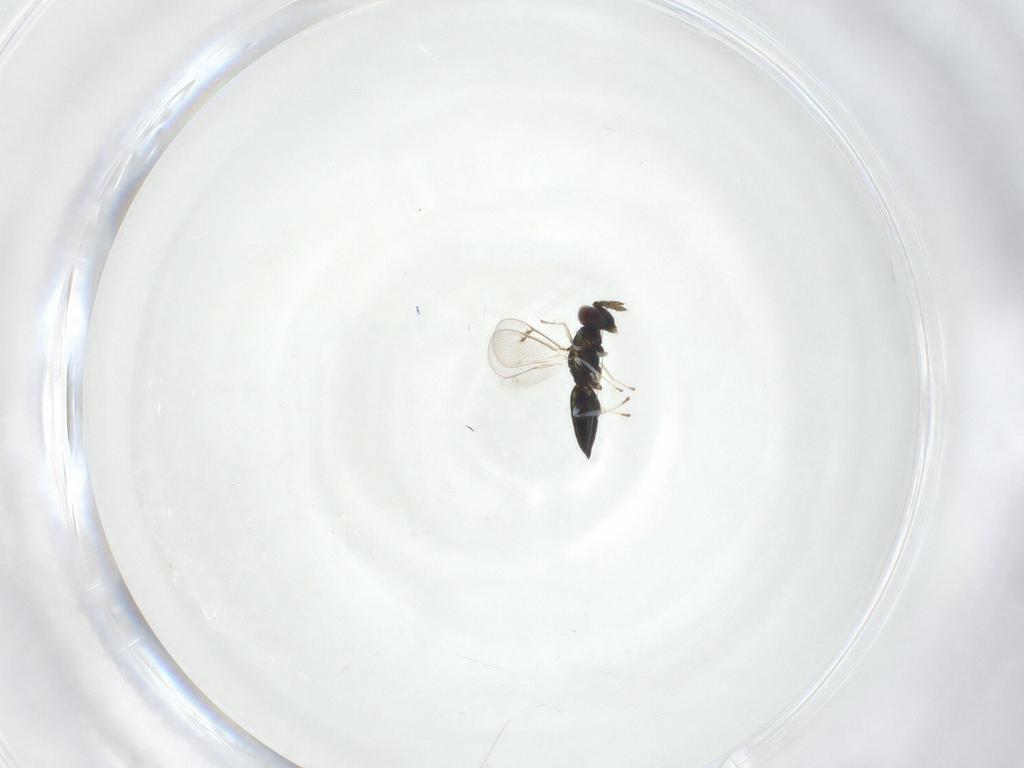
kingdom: Animalia
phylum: Arthropoda
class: Insecta
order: Hymenoptera
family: Eulophidae
